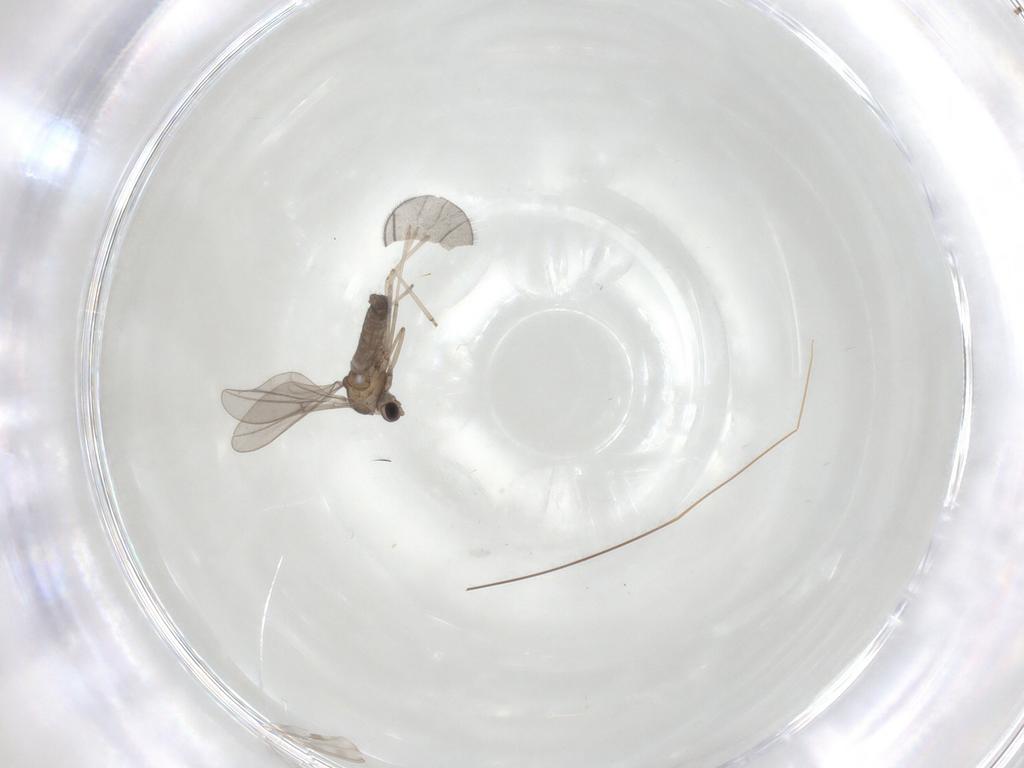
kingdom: Animalia
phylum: Arthropoda
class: Insecta
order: Diptera
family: Cecidomyiidae
